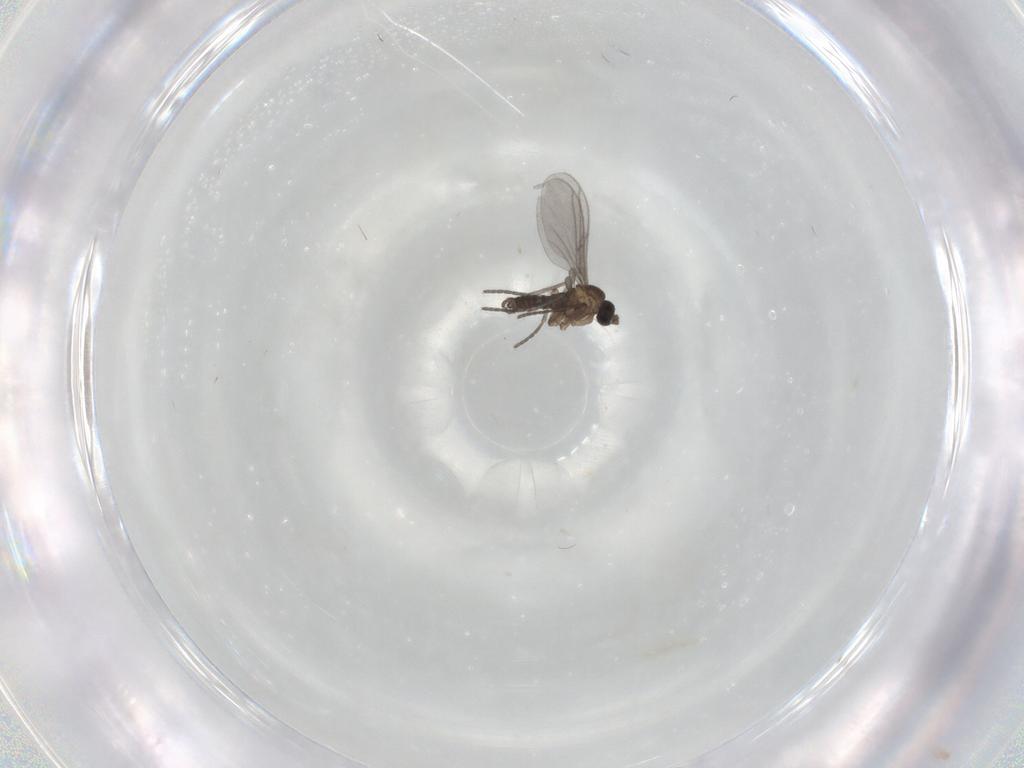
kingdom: Animalia
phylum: Arthropoda
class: Insecta
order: Diptera
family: Sciaridae
